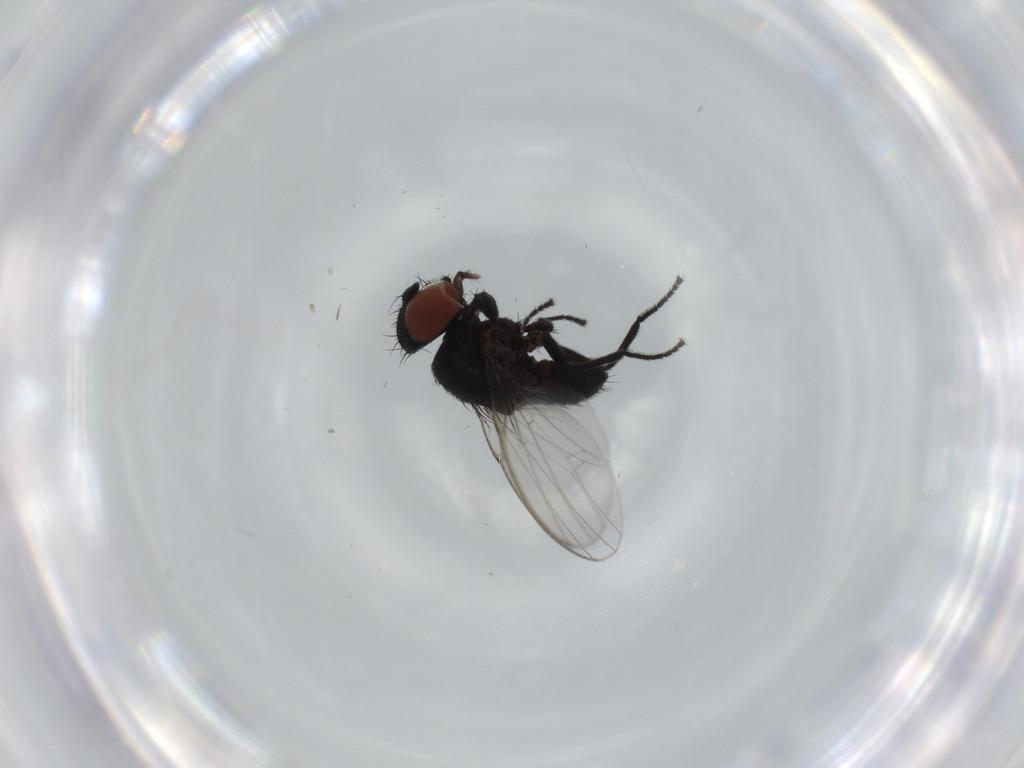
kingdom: Animalia
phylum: Arthropoda
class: Insecta
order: Diptera
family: Milichiidae
